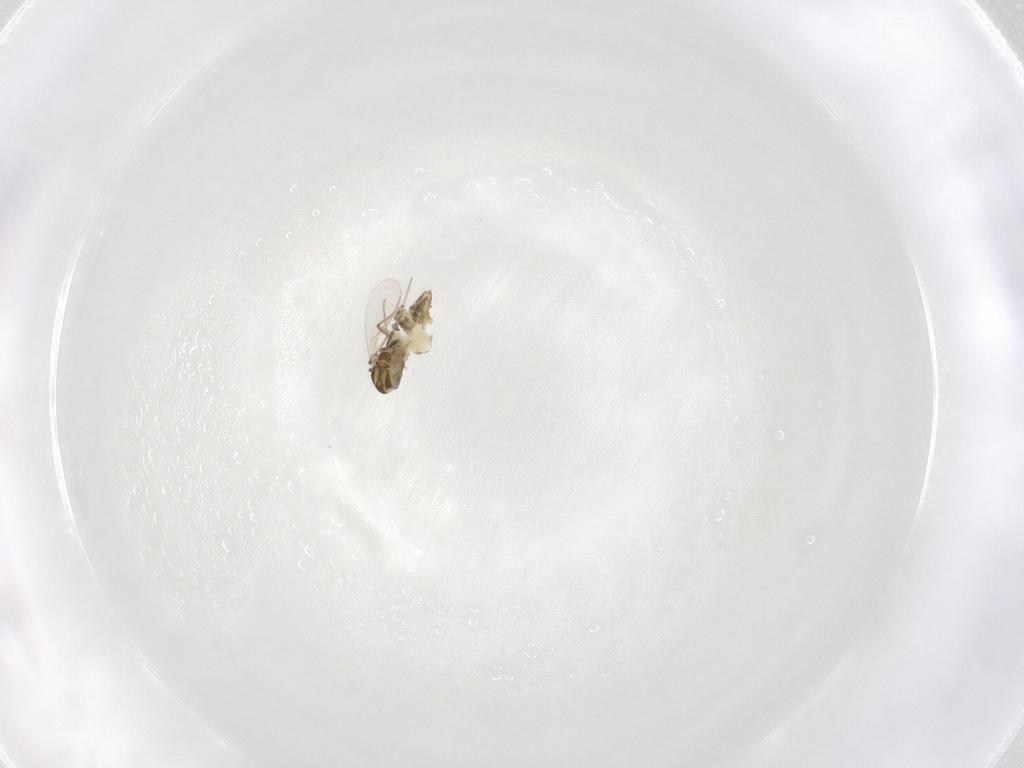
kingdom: Animalia
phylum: Arthropoda
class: Insecta
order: Diptera
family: Chironomidae
